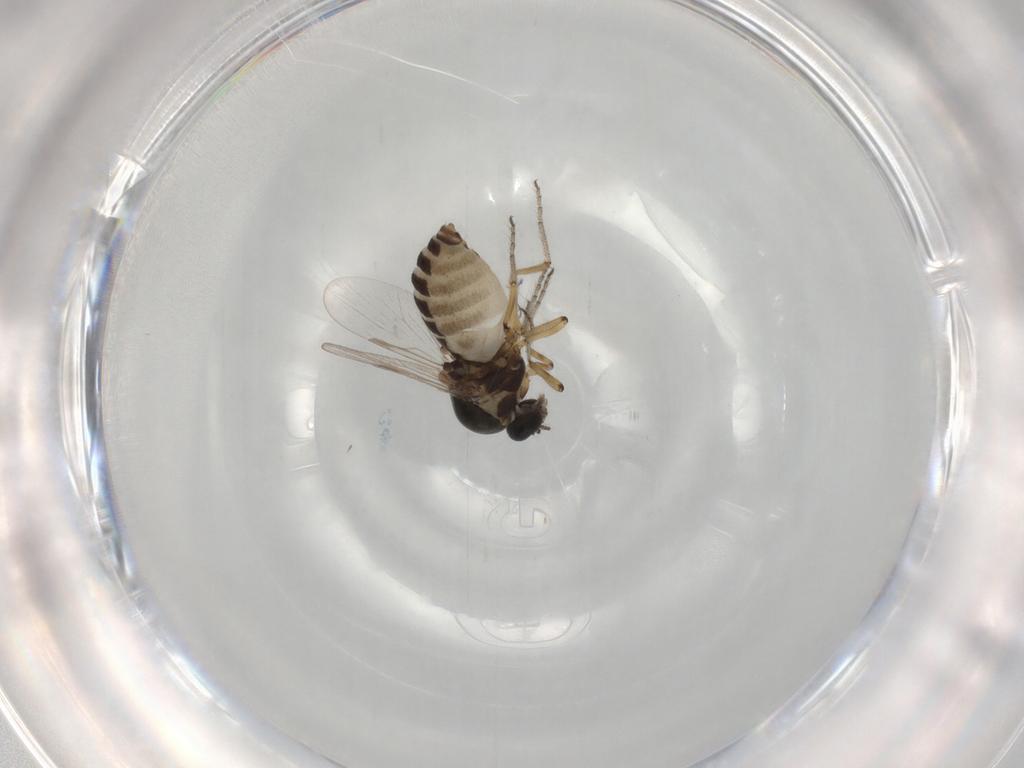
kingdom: Animalia
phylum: Arthropoda
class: Insecta
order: Diptera
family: Ceratopogonidae
